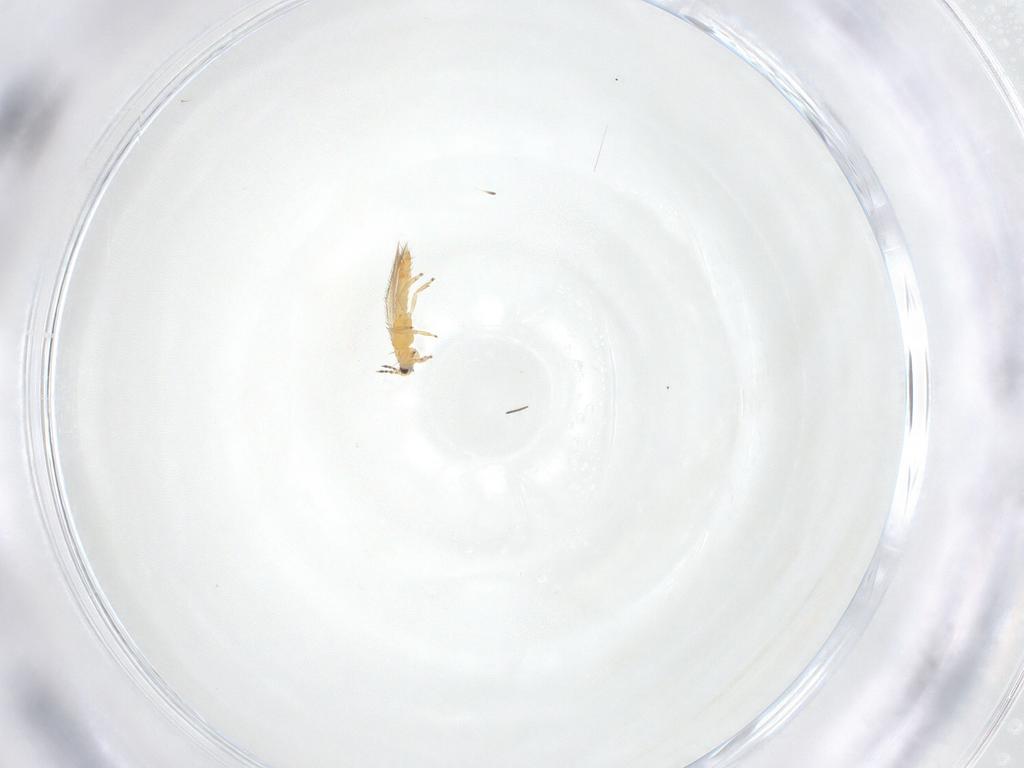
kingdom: Animalia
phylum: Arthropoda
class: Insecta
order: Thysanoptera
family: Thripidae
